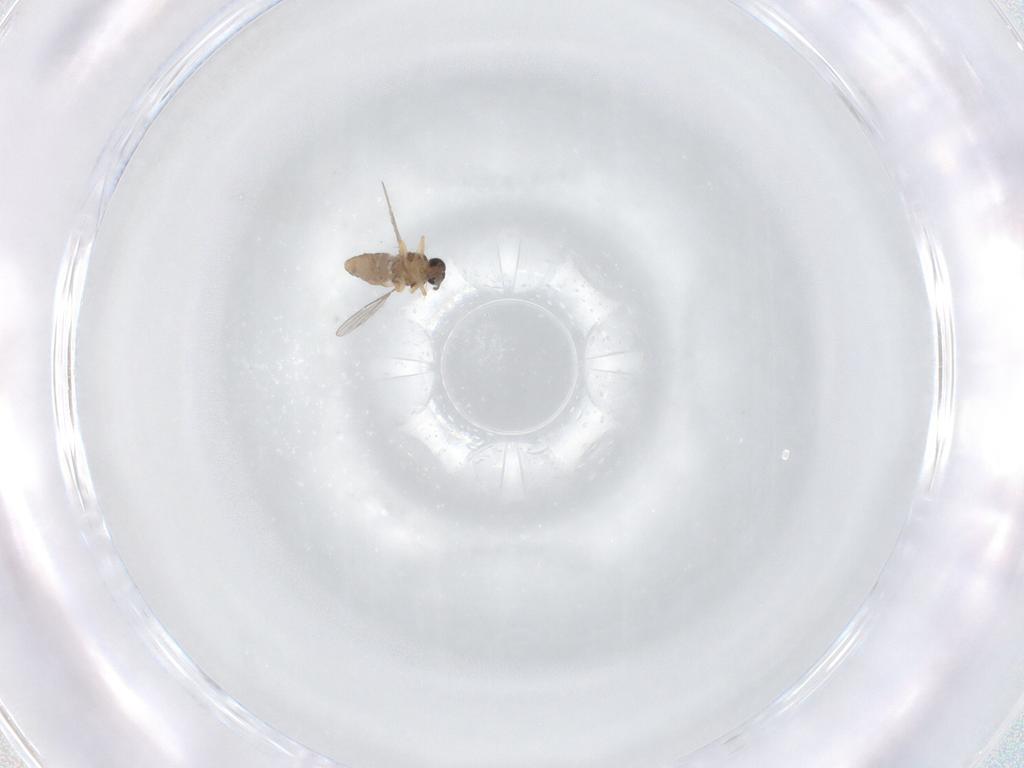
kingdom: Animalia
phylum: Arthropoda
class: Insecta
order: Diptera
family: Ceratopogonidae
